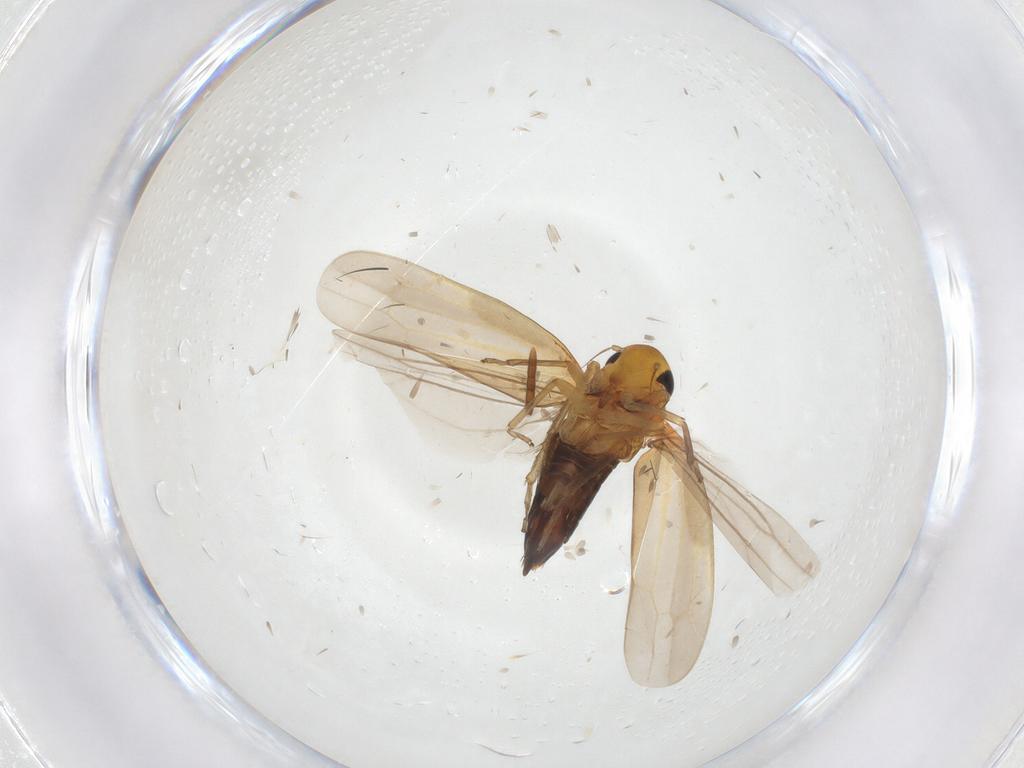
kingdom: Animalia
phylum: Arthropoda
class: Insecta
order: Hemiptera
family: Cicadellidae
